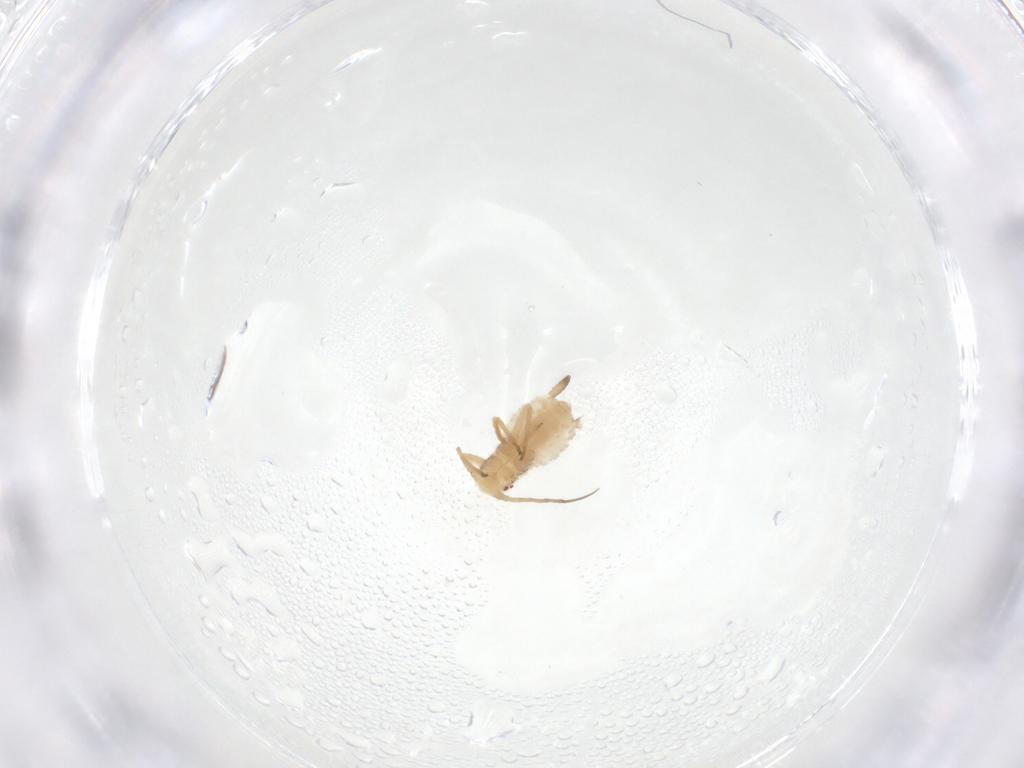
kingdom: Animalia
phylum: Arthropoda
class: Insecta
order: Hemiptera
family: Aphididae
